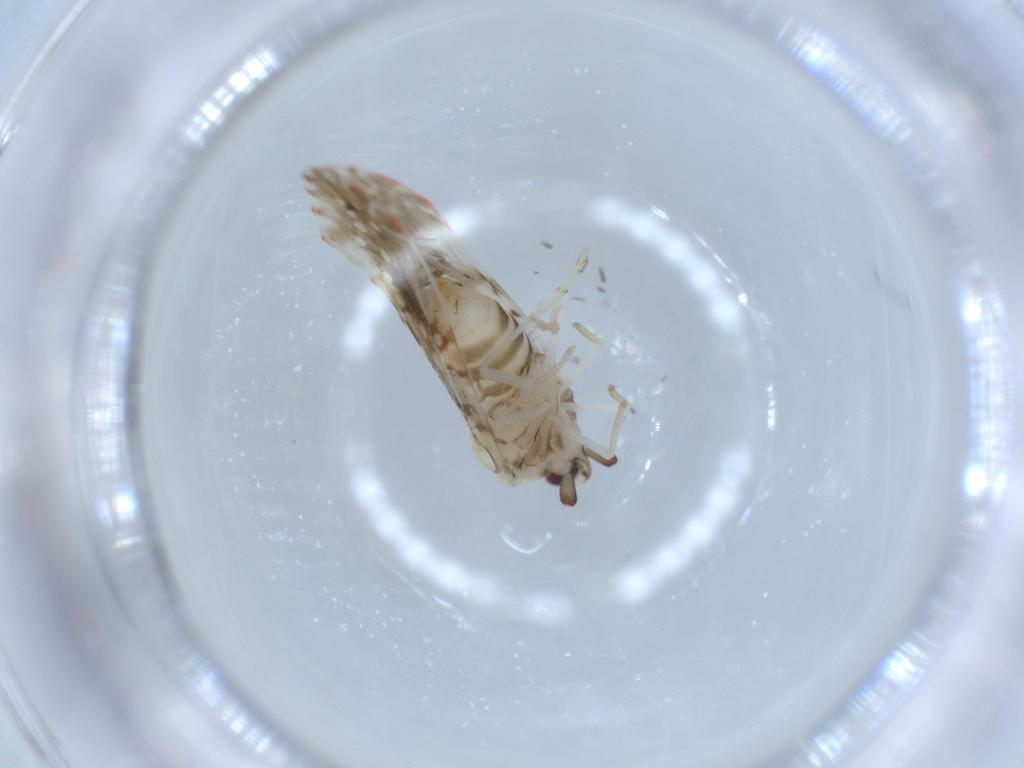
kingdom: Animalia
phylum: Arthropoda
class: Insecta
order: Hemiptera
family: Derbidae
